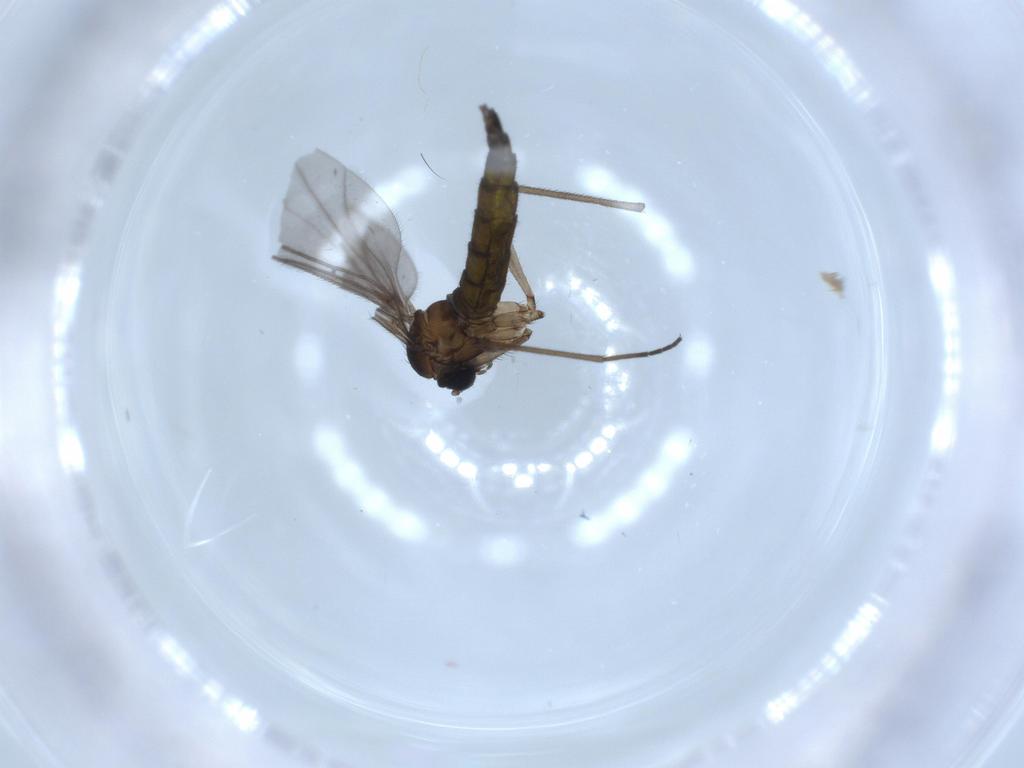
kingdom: Animalia
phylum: Arthropoda
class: Insecta
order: Diptera
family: Sciaridae
